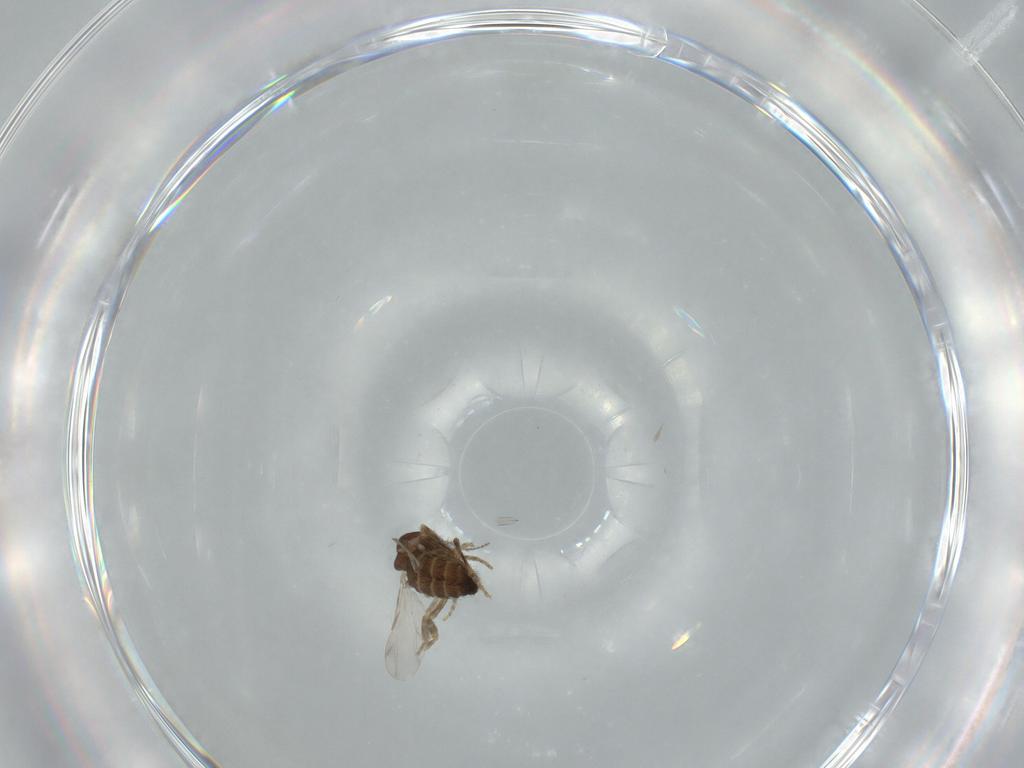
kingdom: Animalia
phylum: Arthropoda
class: Insecta
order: Diptera
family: Ceratopogonidae
